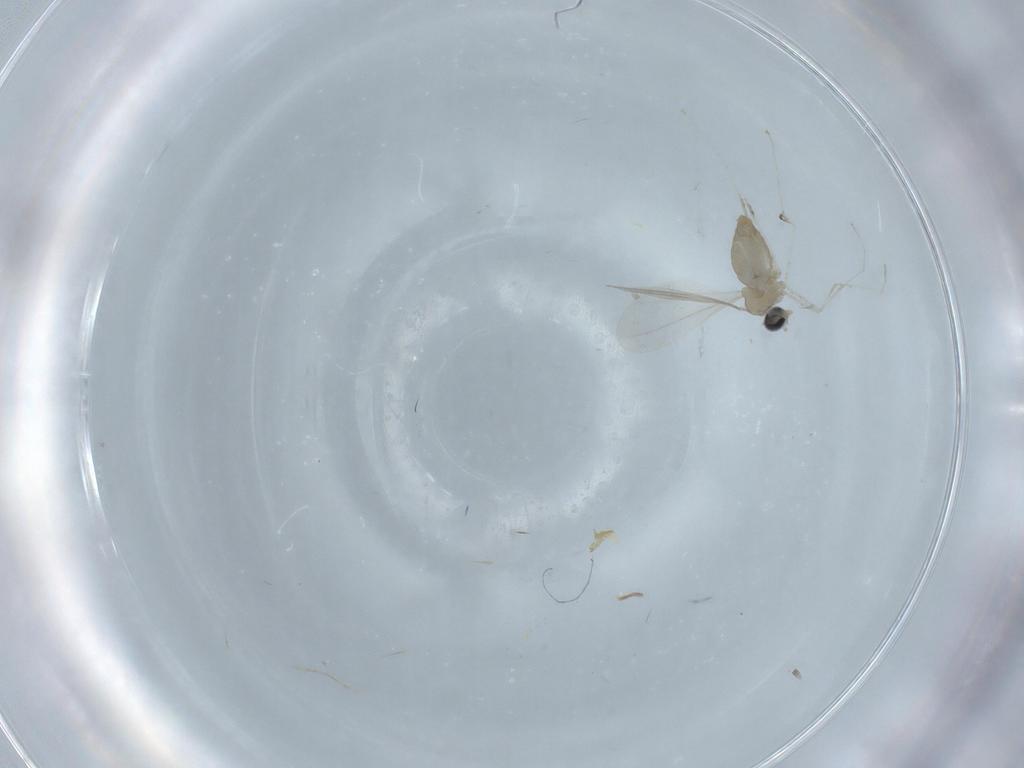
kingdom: Animalia
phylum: Arthropoda
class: Insecta
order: Diptera
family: Cecidomyiidae
